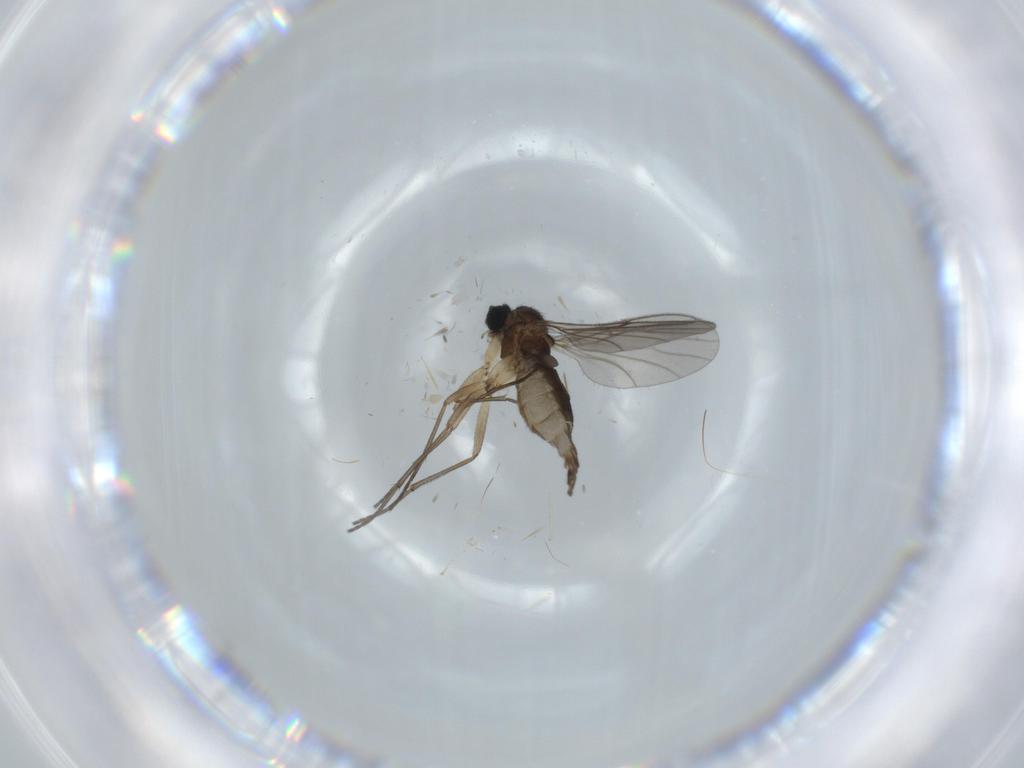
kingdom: Animalia
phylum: Arthropoda
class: Insecta
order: Diptera
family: Sciaridae
